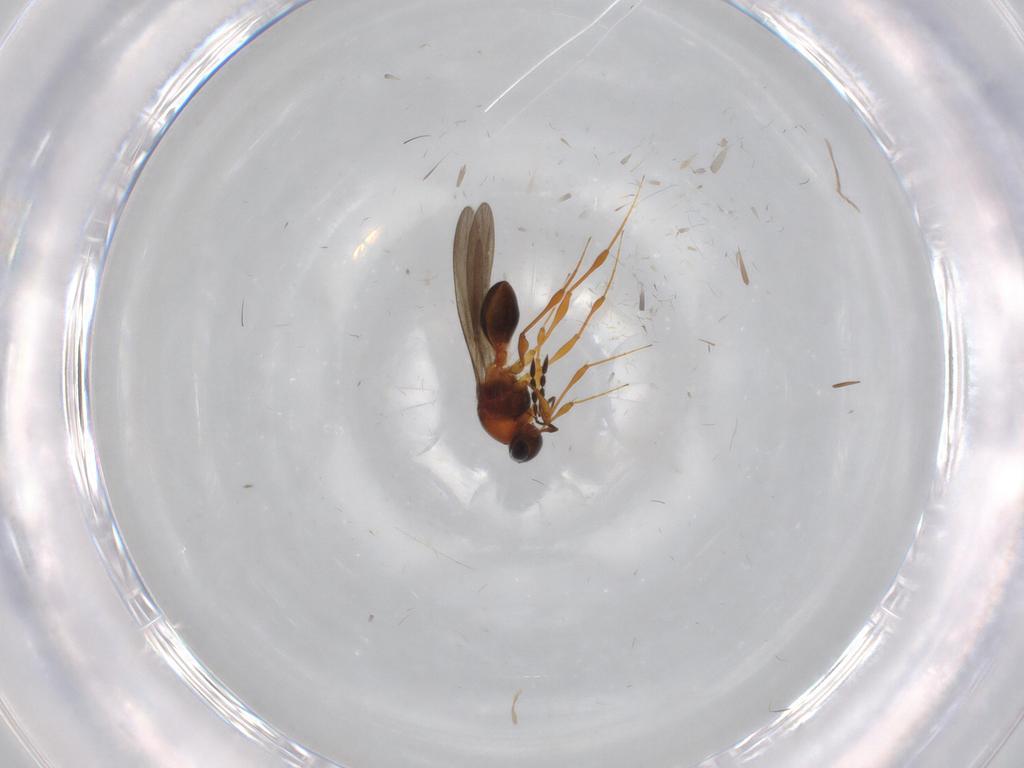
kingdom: Animalia
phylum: Arthropoda
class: Insecta
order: Hymenoptera
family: Platygastridae
